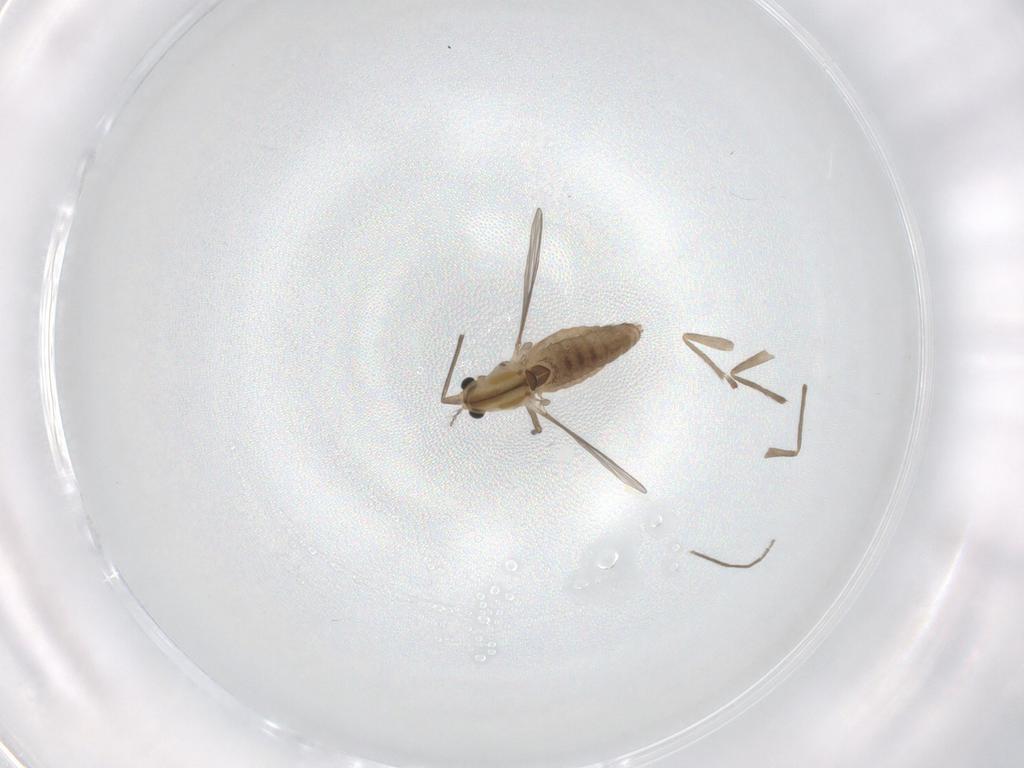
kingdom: Animalia
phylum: Arthropoda
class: Insecta
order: Diptera
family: Chironomidae
